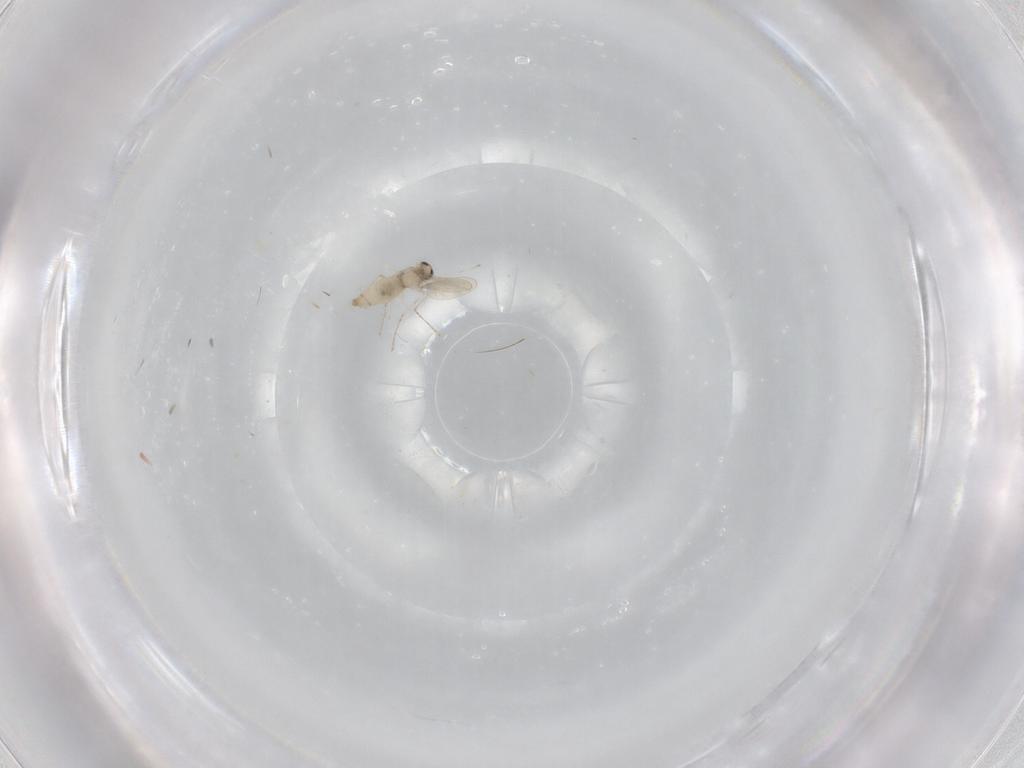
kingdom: Animalia
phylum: Arthropoda
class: Insecta
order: Diptera
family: Cecidomyiidae
